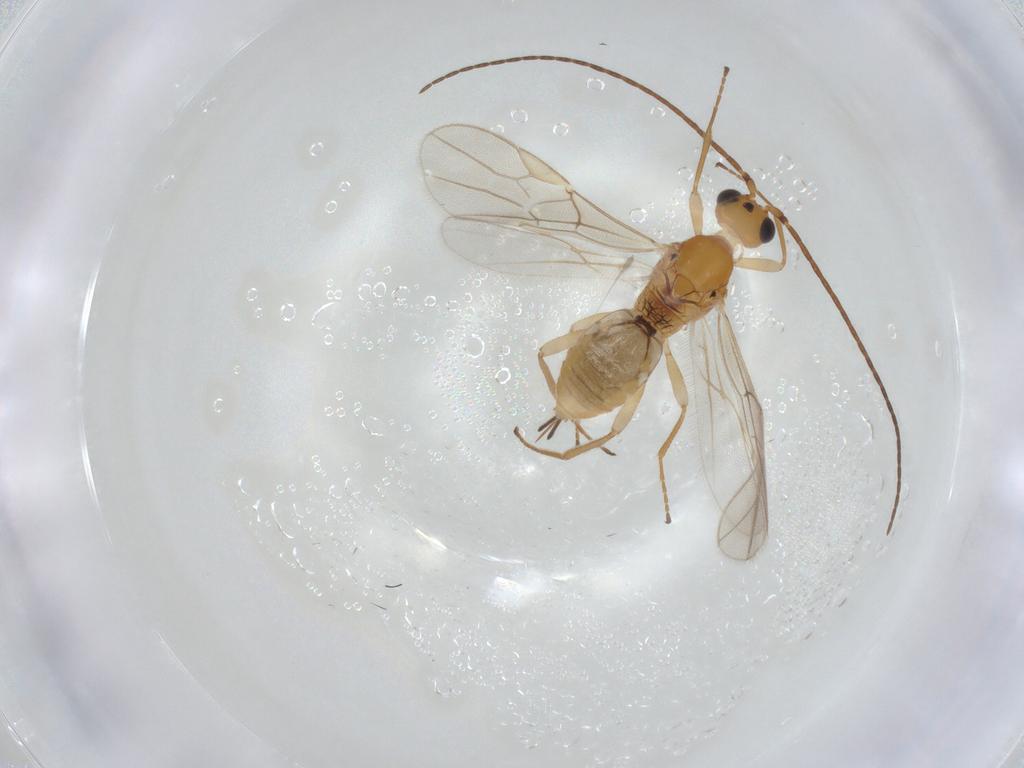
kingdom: Animalia
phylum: Arthropoda
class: Insecta
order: Hymenoptera
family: Braconidae
